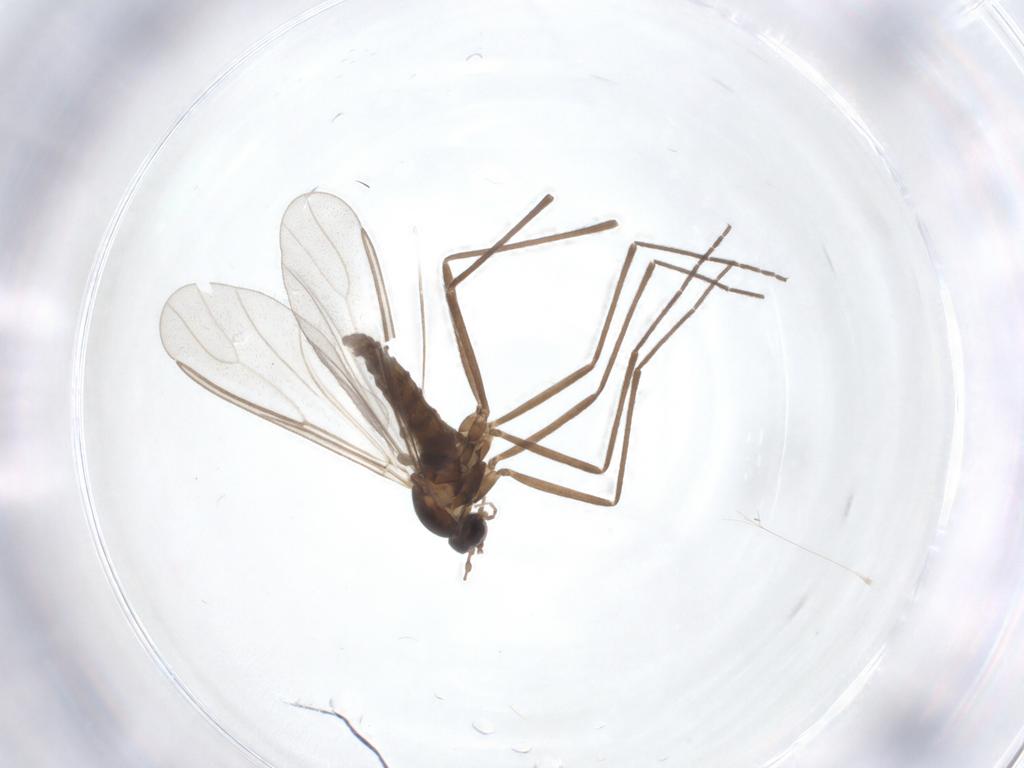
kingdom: Animalia
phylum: Arthropoda
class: Insecta
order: Diptera
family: Cecidomyiidae
